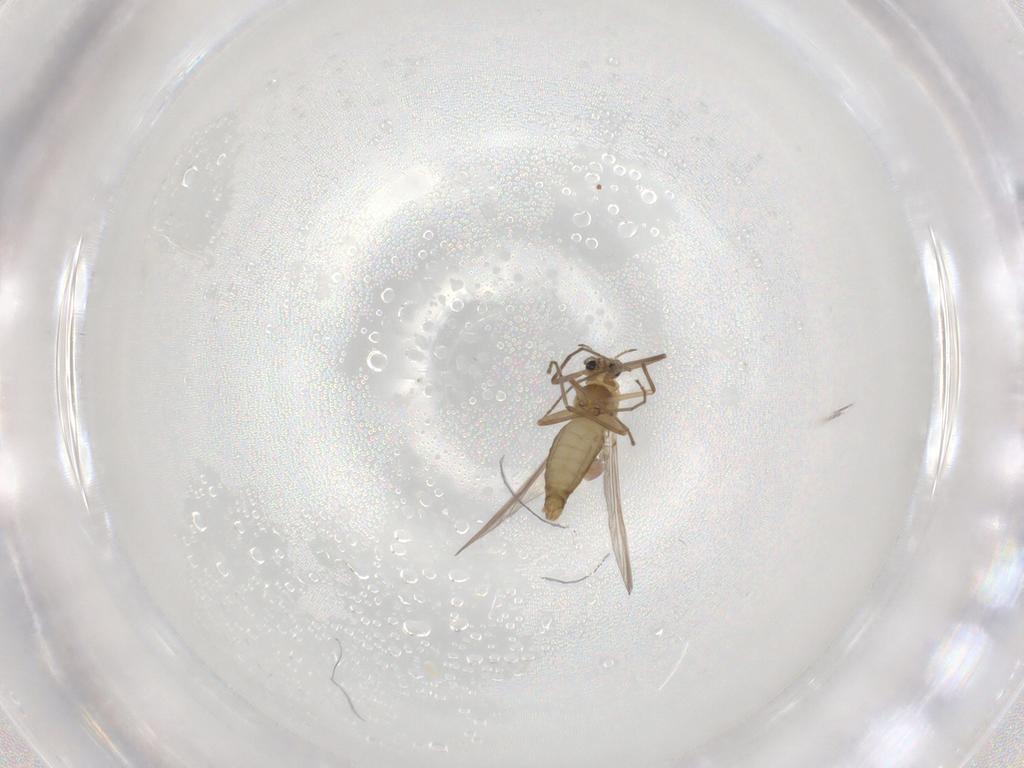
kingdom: Animalia
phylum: Arthropoda
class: Insecta
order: Diptera
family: Chironomidae
